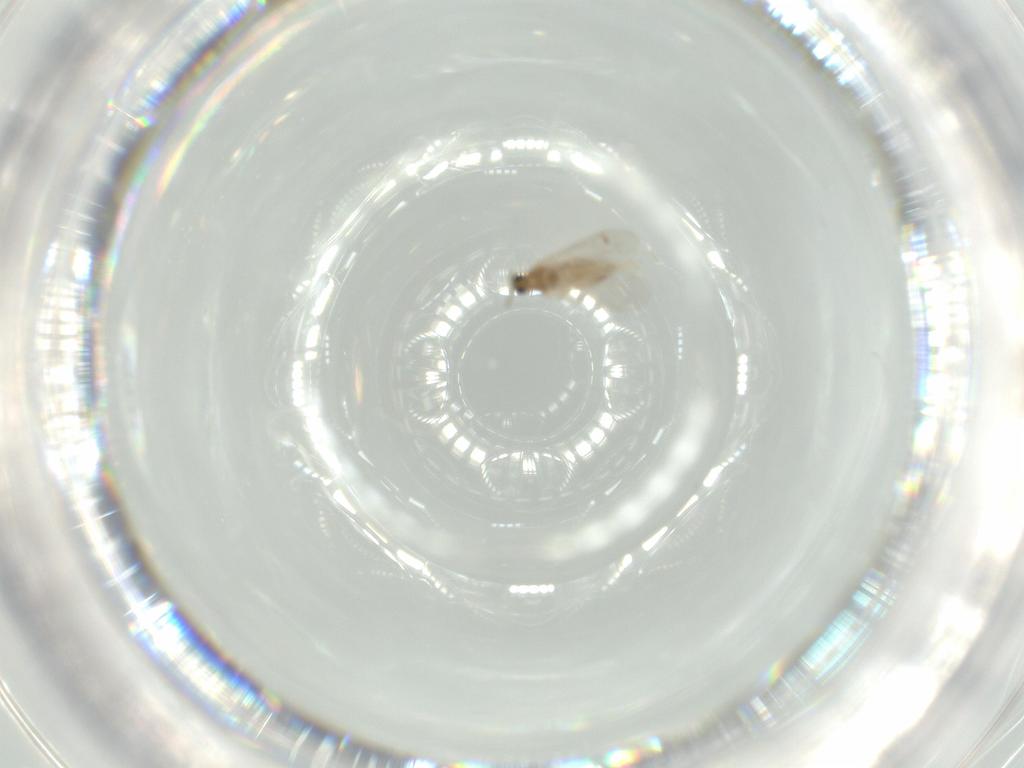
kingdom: Animalia
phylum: Arthropoda
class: Insecta
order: Diptera
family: Cecidomyiidae
